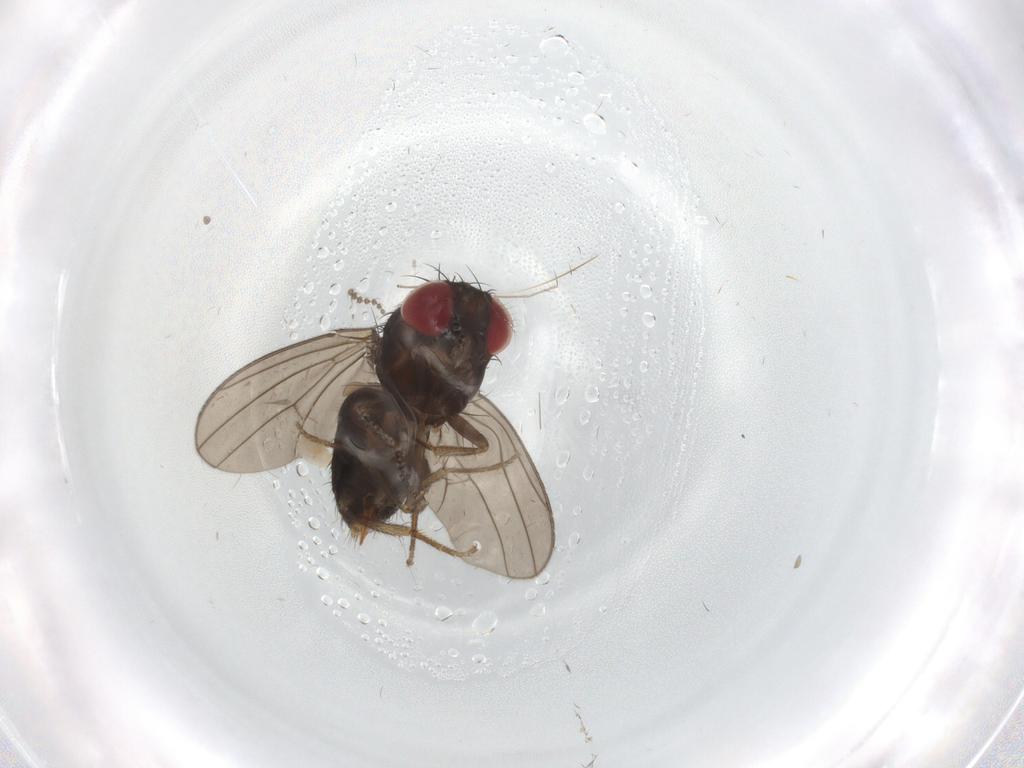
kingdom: Animalia
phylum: Arthropoda
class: Insecta
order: Diptera
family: Drosophilidae
